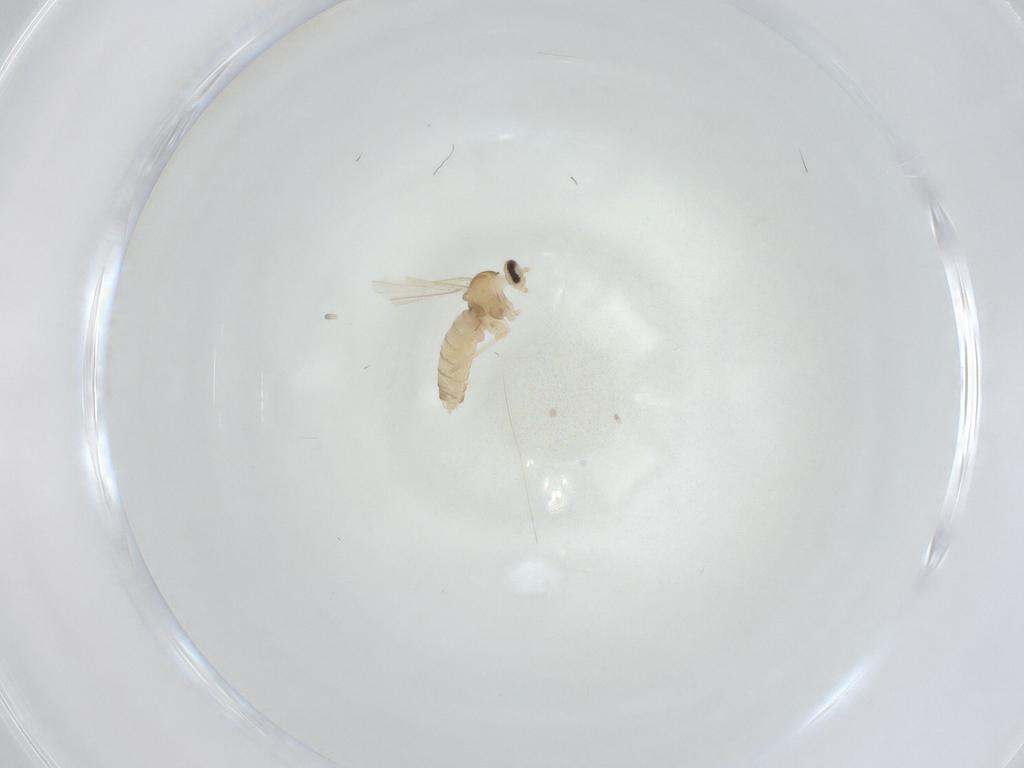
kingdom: Animalia
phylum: Arthropoda
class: Insecta
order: Diptera
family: Cecidomyiidae
